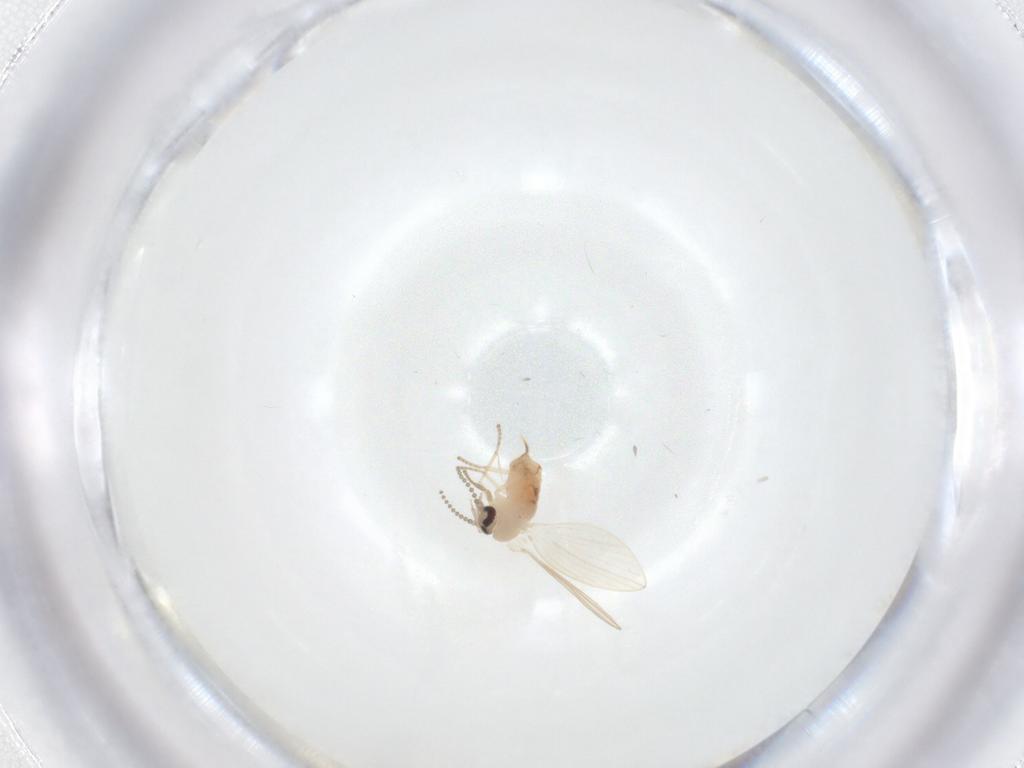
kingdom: Animalia
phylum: Arthropoda
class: Insecta
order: Diptera
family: Psychodidae
